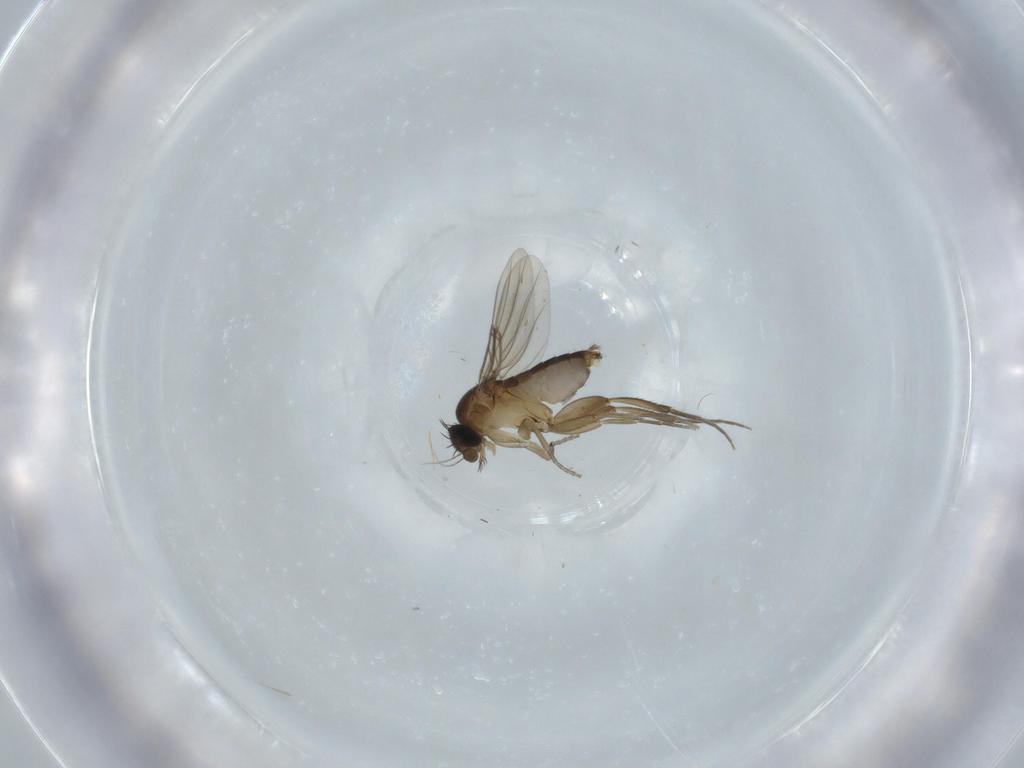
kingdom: Animalia
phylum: Arthropoda
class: Insecta
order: Diptera
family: Phoridae
